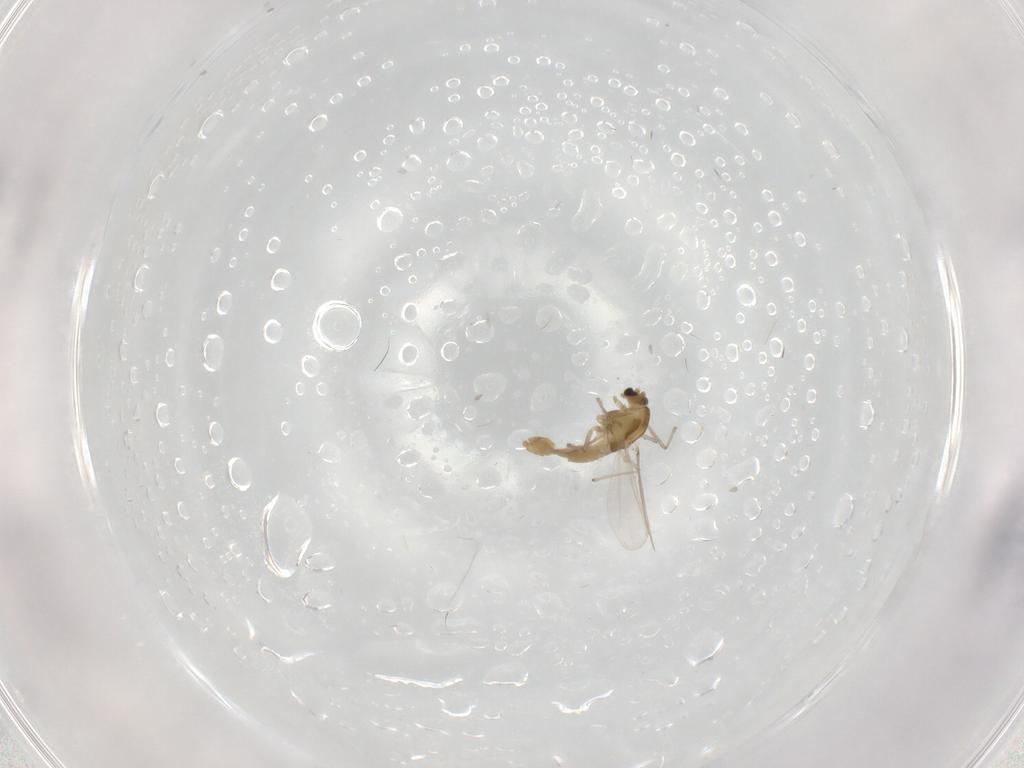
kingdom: Animalia
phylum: Arthropoda
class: Insecta
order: Diptera
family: Chironomidae
